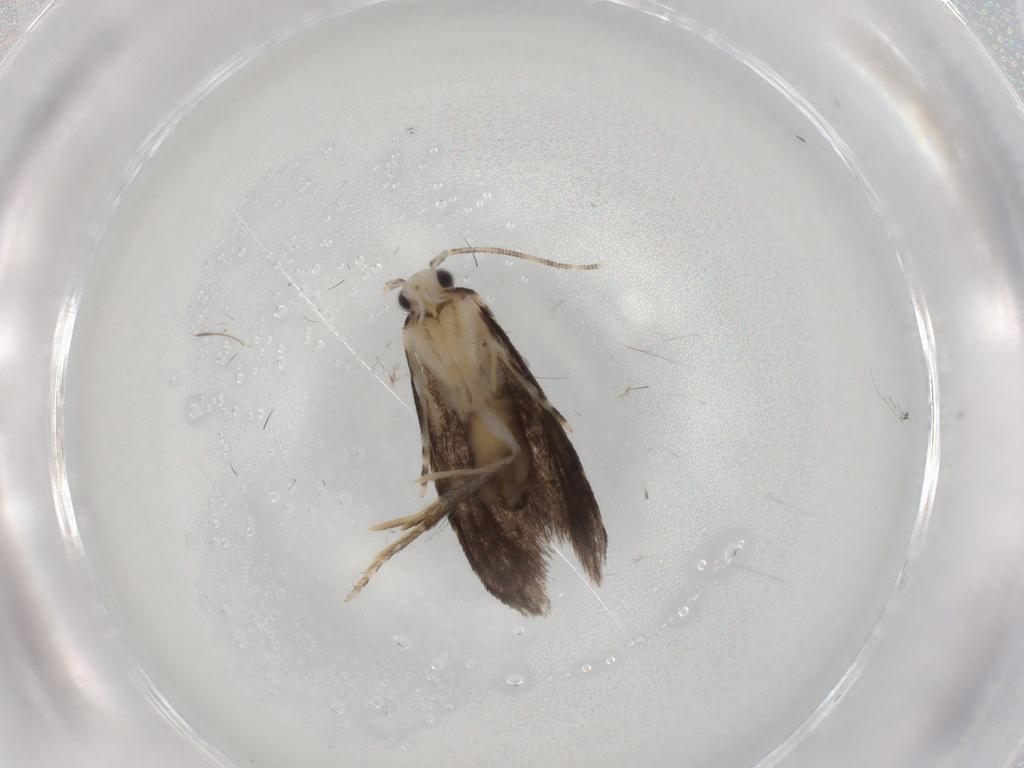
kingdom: Animalia
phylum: Arthropoda
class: Insecta
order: Lepidoptera
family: Tineidae
